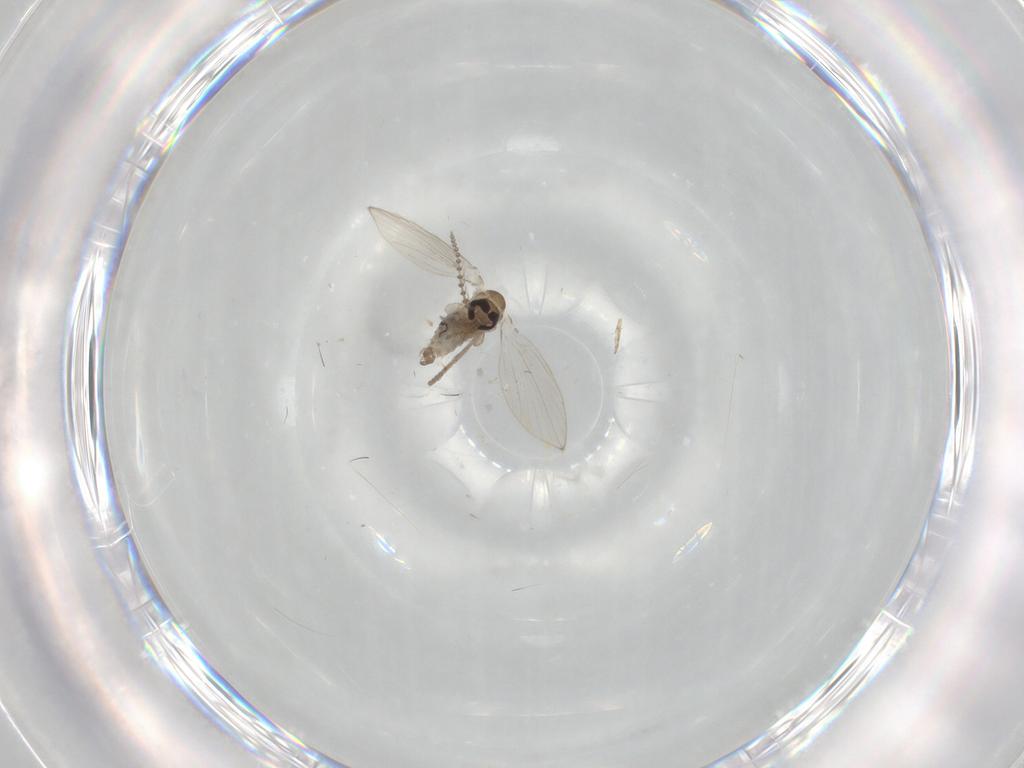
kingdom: Animalia
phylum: Arthropoda
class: Insecta
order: Diptera
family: Psychodidae
